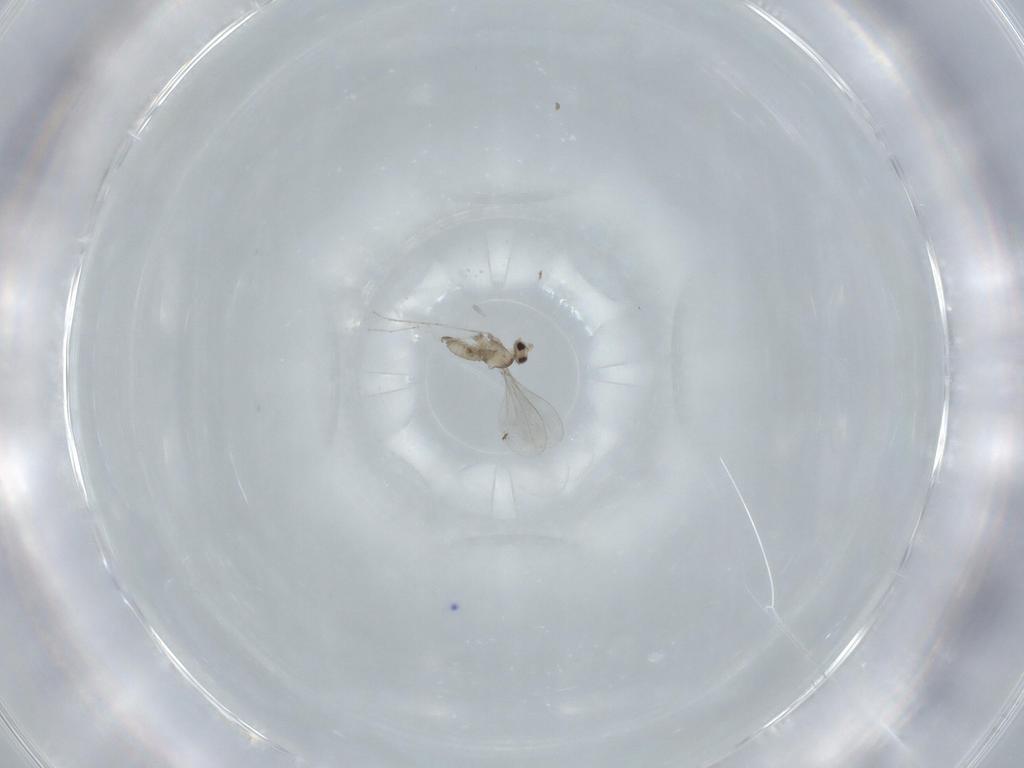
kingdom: Animalia
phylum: Arthropoda
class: Insecta
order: Diptera
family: Cecidomyiidae
